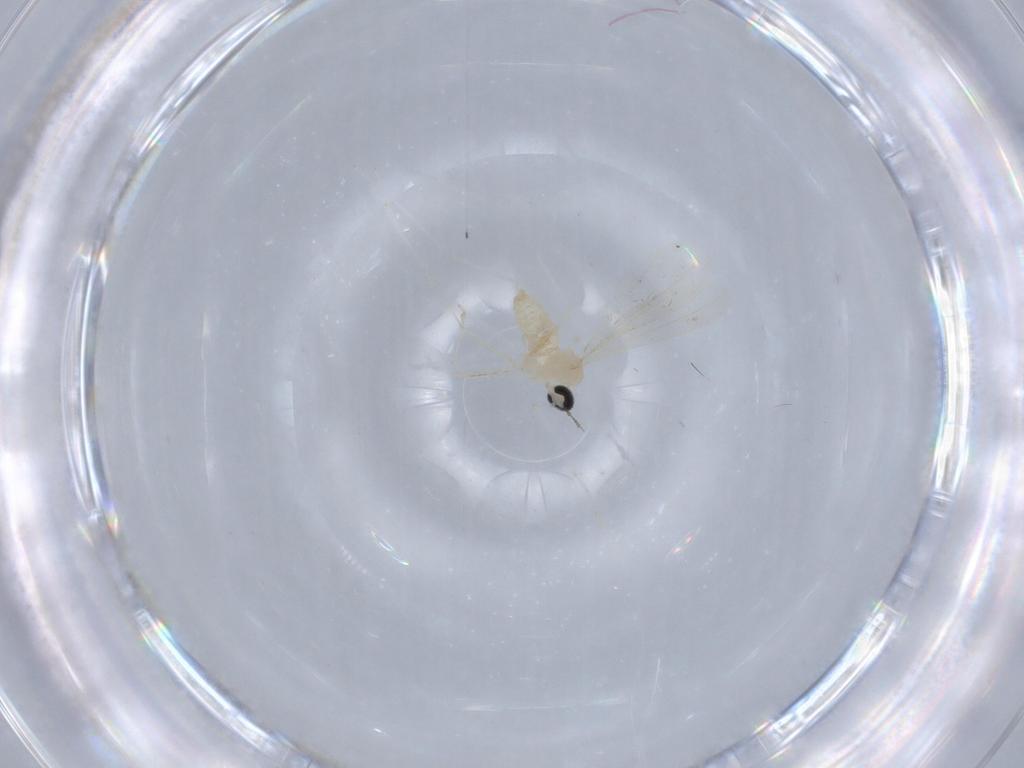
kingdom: Animalia
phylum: Arthropoda
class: Insecta
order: Diptera
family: Cecidomyiidae
